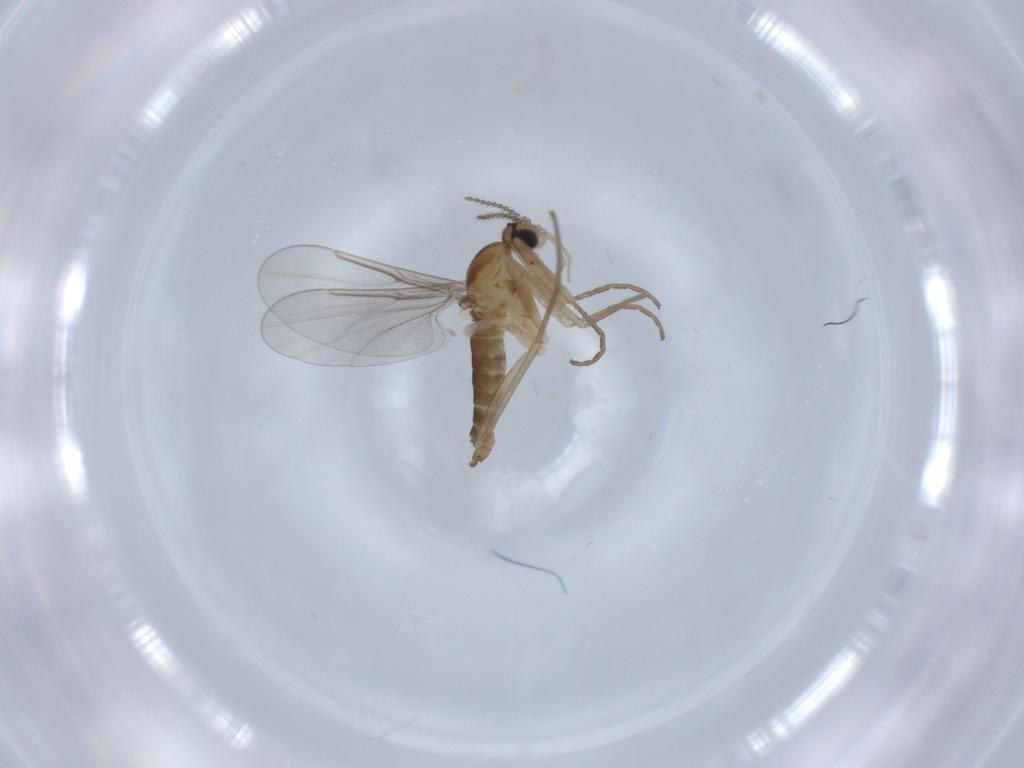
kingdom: Animalia
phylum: Arthropoda
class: Insecta
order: Diptera
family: Cecidomyiidae
